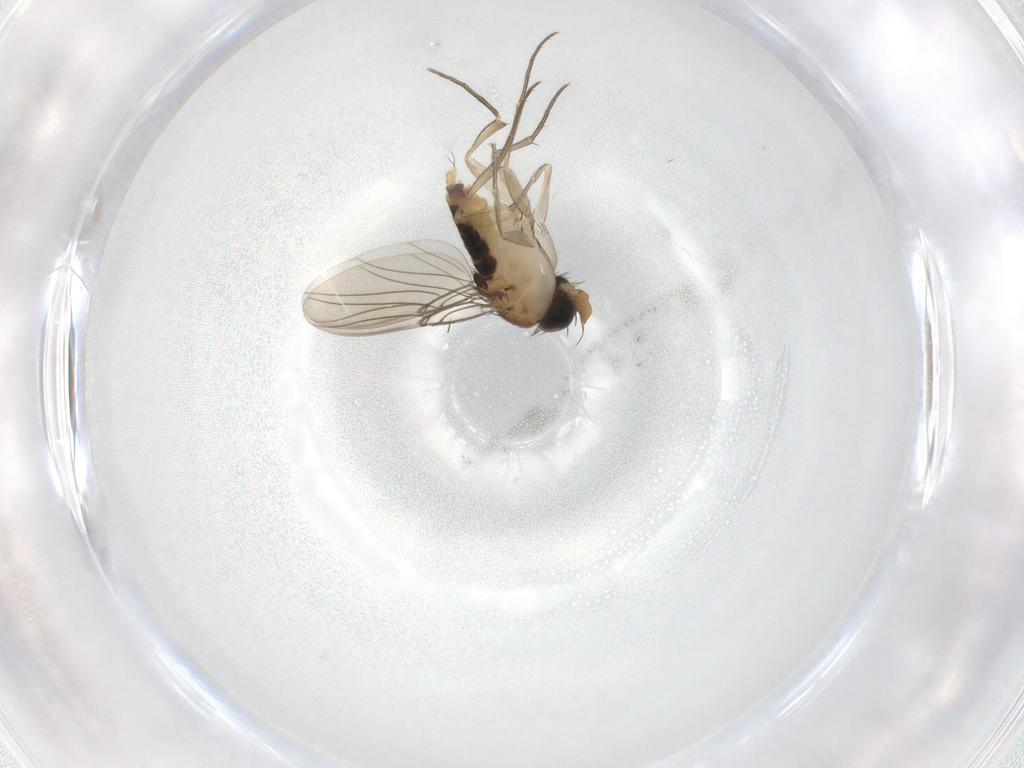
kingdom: Animalia
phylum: Arthropoda
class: Insecta
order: Diptera
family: Phoridae
